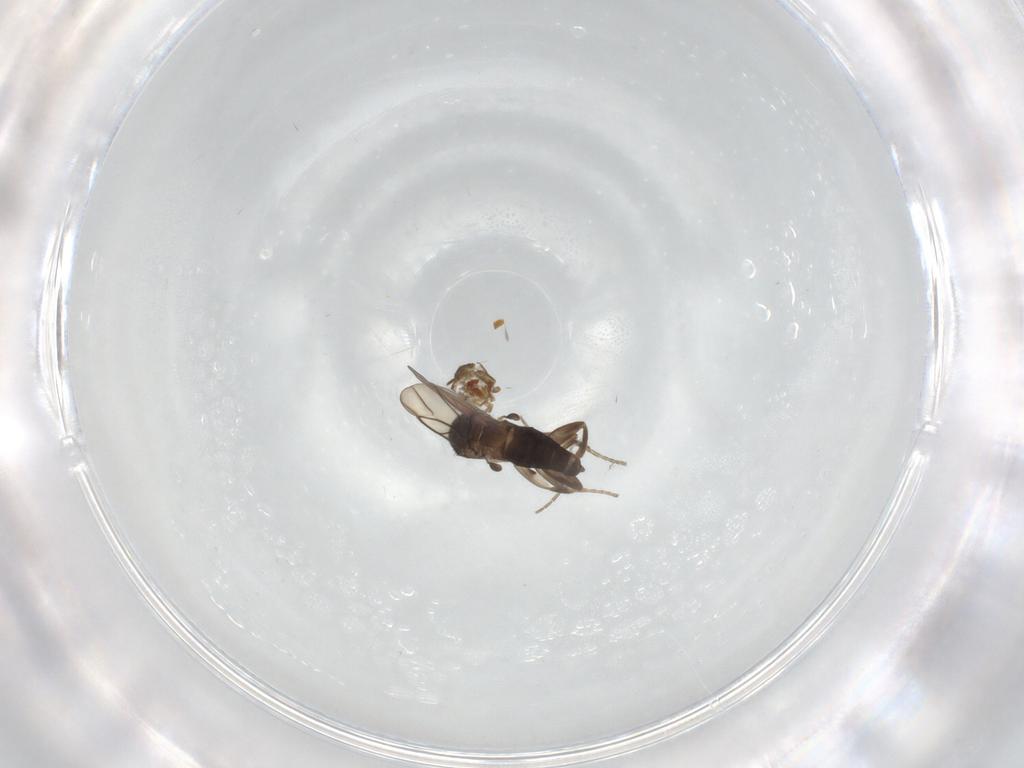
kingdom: Animalia
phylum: Arthropoda
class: Insecta
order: Diptera
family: Phoridae
